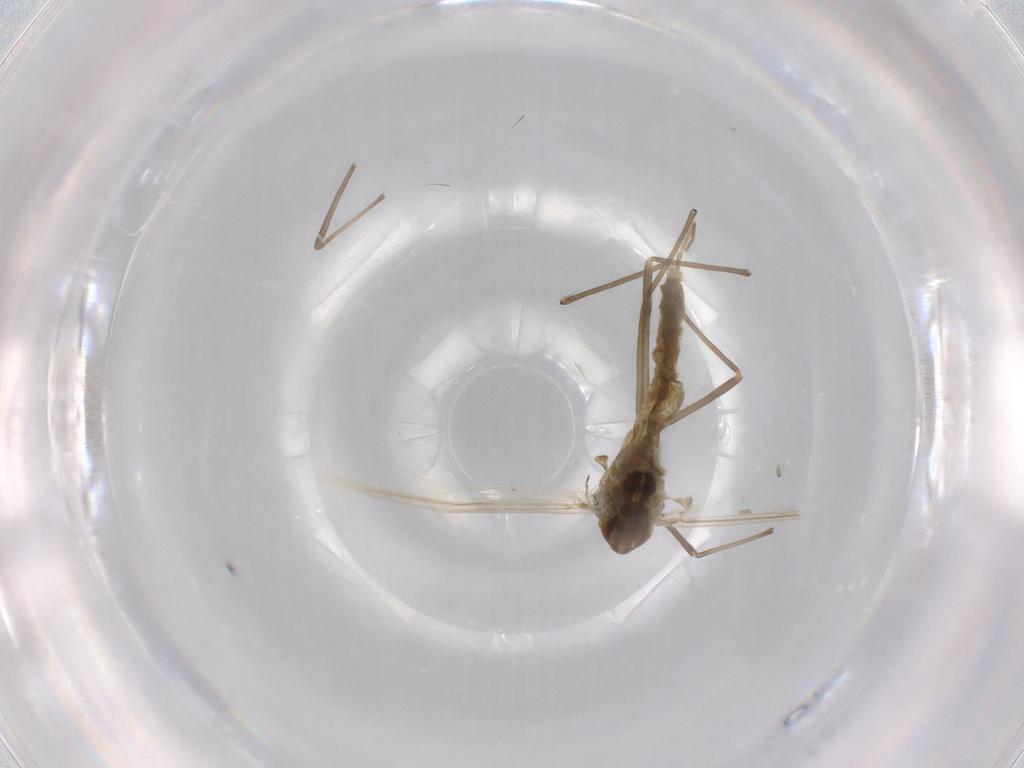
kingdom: Animalia
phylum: Arthropoda
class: Insecta
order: Diptera
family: Chironomidae
